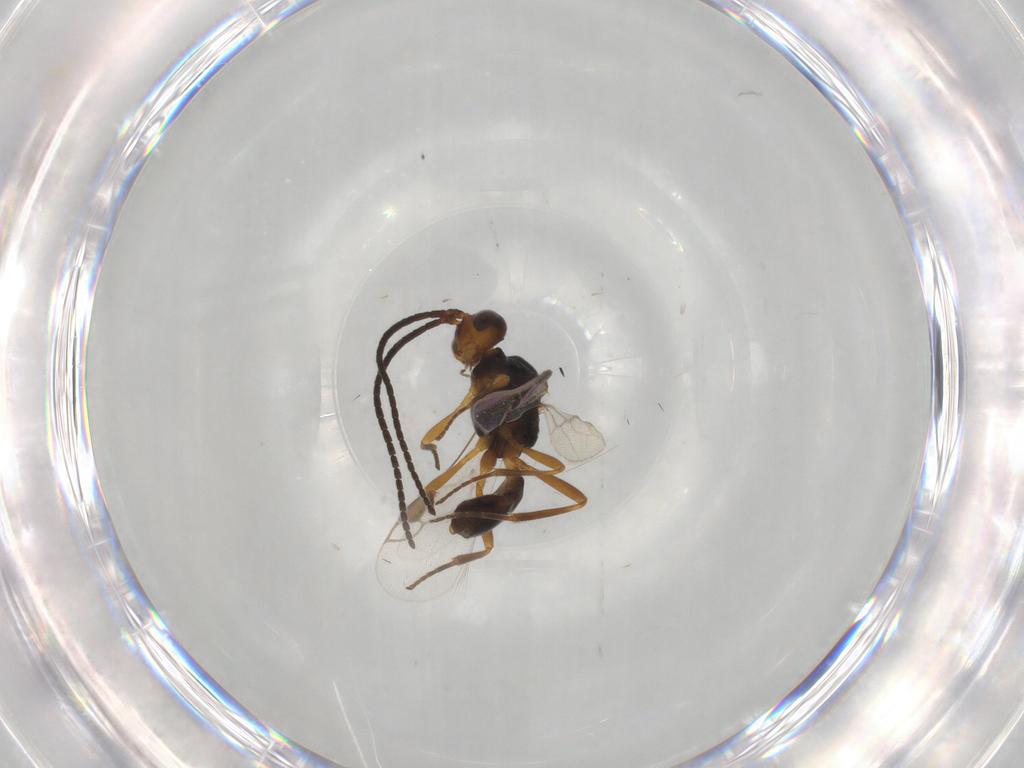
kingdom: Animalia
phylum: Arthropoda
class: Insecta
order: Hymenoptera
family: Braconidae
